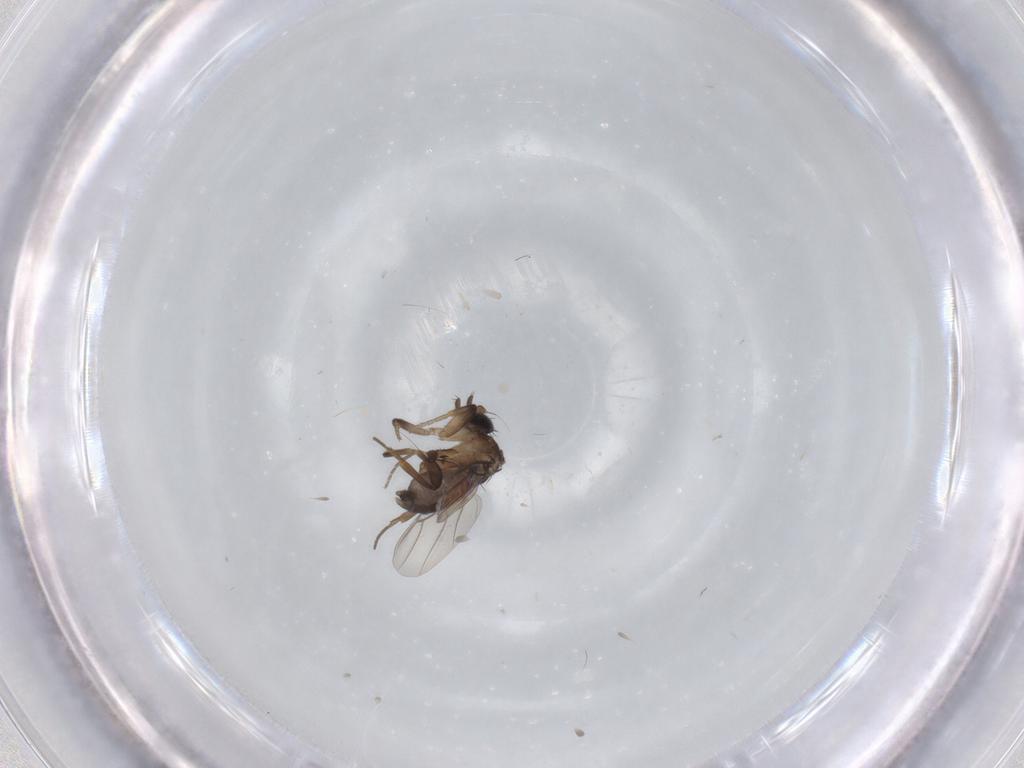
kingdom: Animalia
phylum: Arthropoda
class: Insecta
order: Diptera
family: Phoridae
